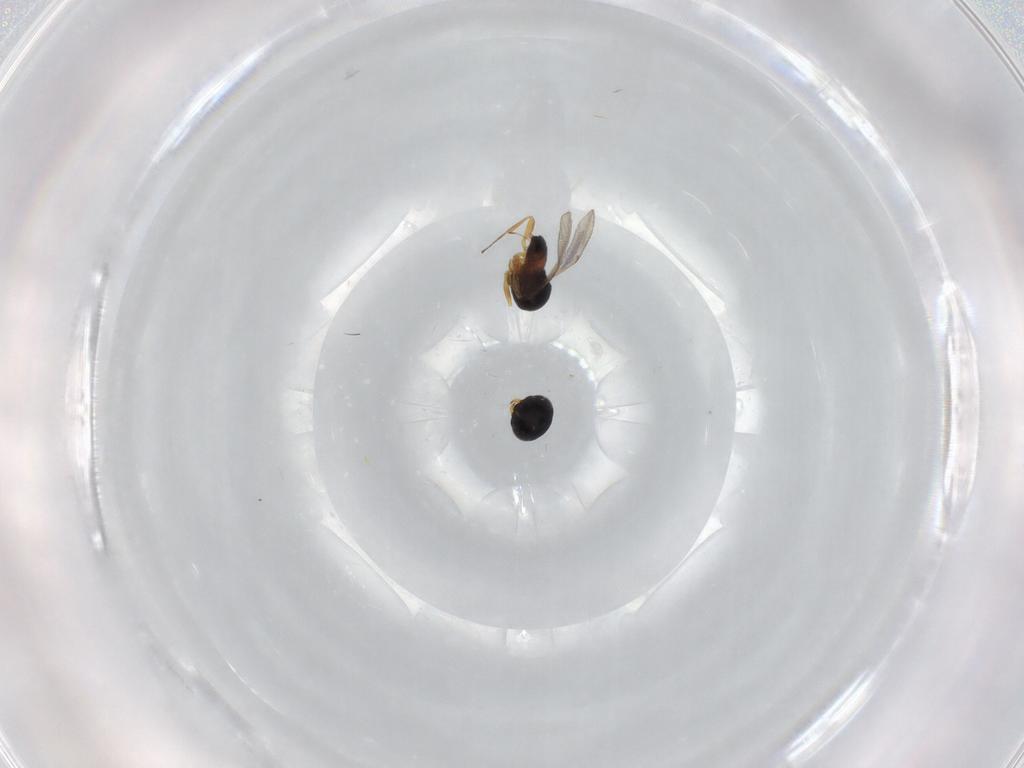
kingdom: Animalia
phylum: Arthropoda
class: Insecta
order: Hymenoptera
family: Scelionidae
